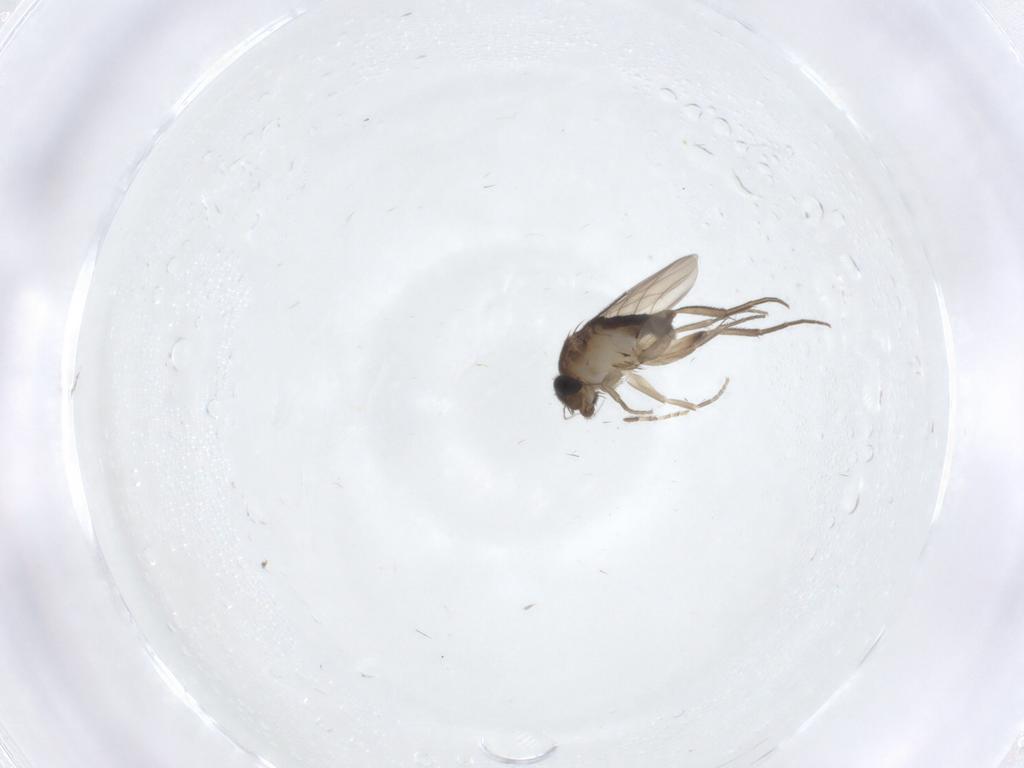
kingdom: Animalia
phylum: Arthropoda
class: Insecta
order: Diptera
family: Phoridae
